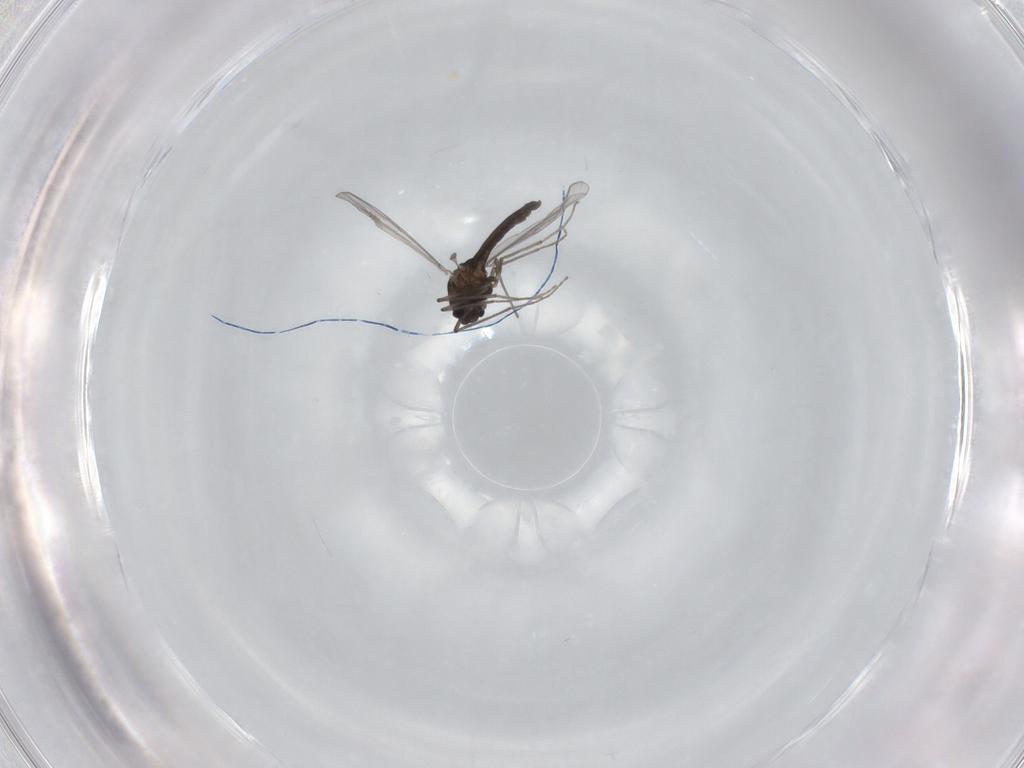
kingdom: Animalia
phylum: Arthropoda
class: Insecta
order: Diptera
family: Chironomidae
